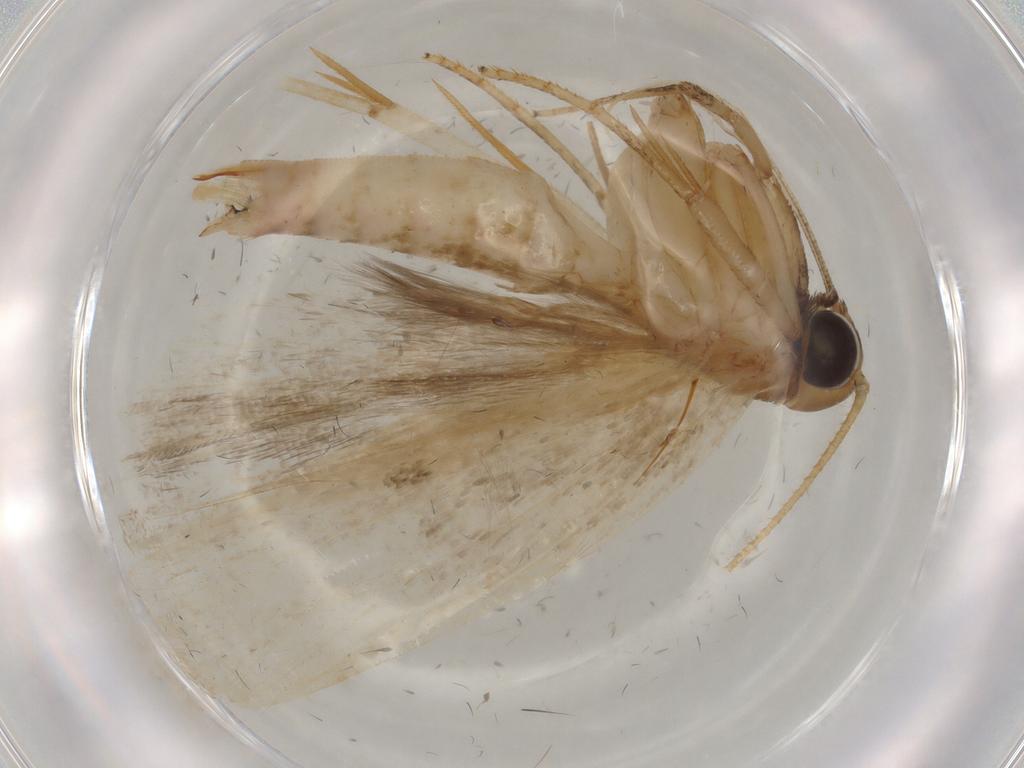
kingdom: Animalia
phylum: Arthropoda
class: Insecta
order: Lepidoptera
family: Gelechiidae
